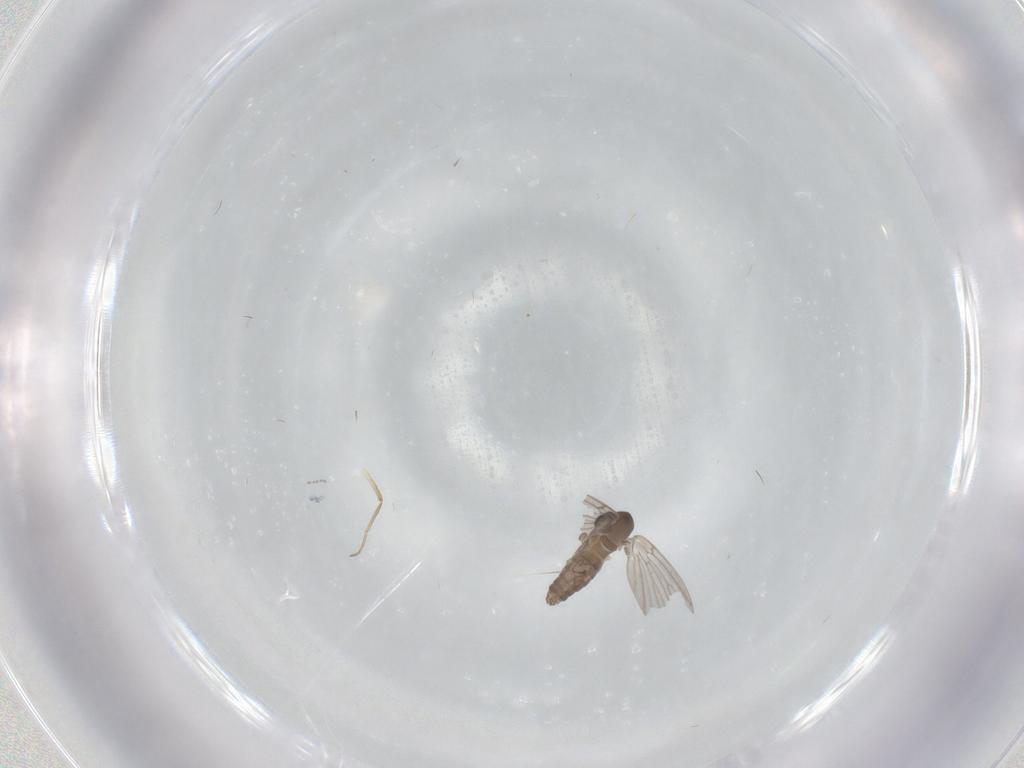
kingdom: Animalia
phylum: Arthropoda
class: Insecta
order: Diptera
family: Chironomidae
